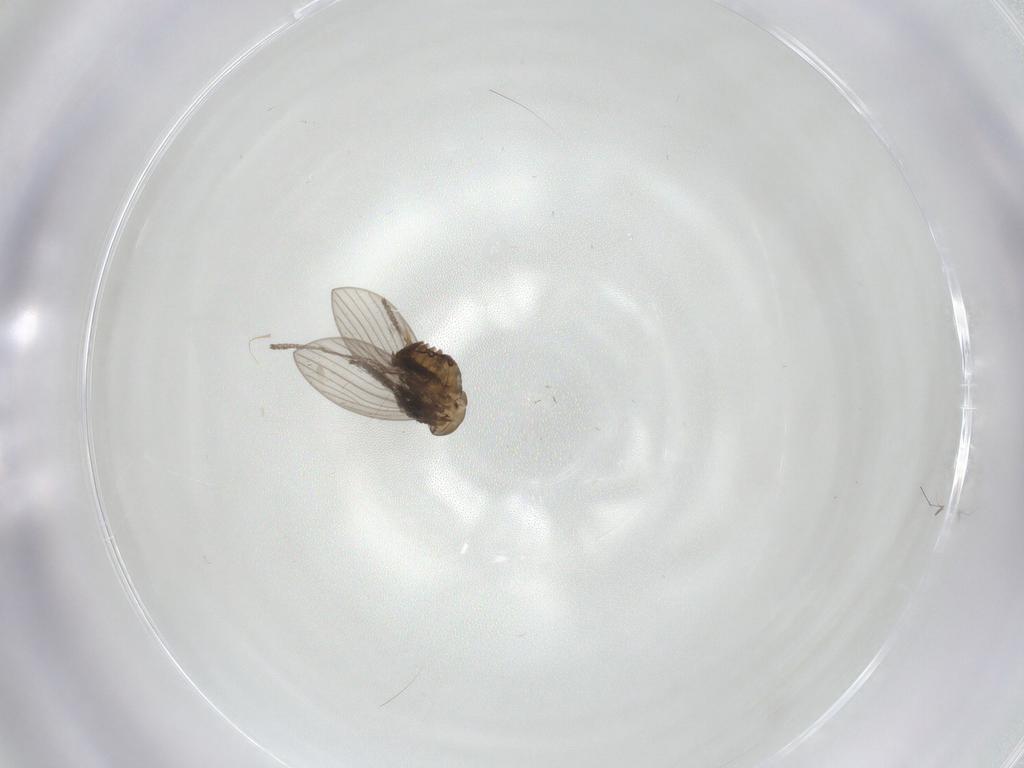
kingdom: Animalia
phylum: Arthropoda
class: Insecta
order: Diptera
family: Psychodidae
